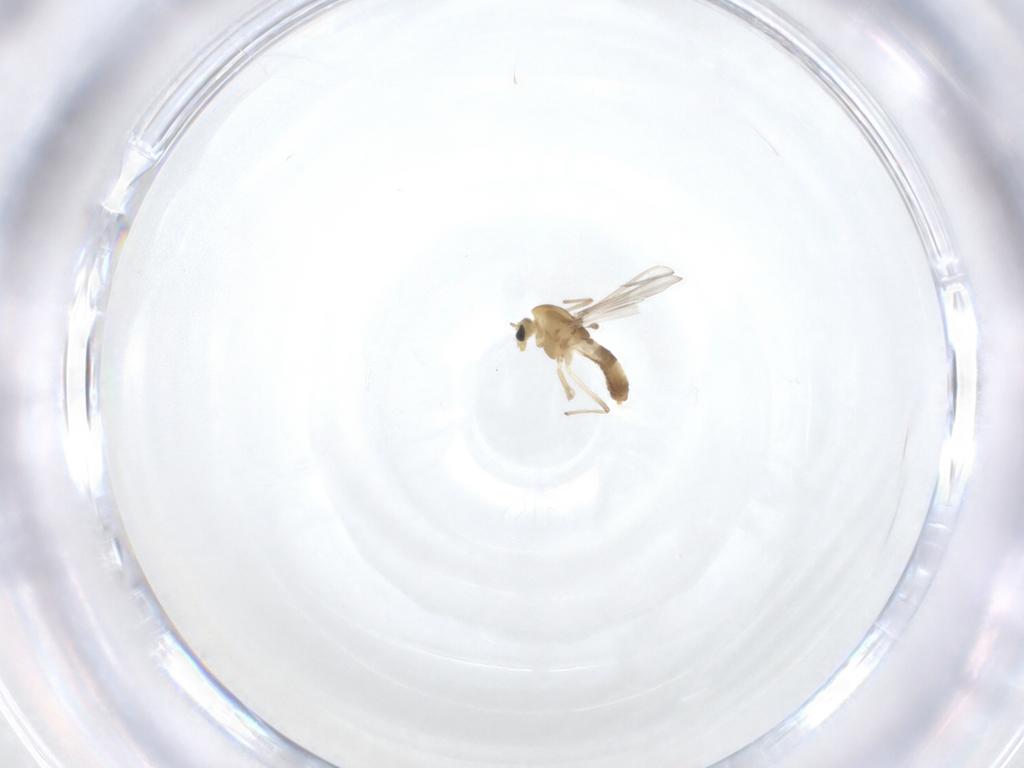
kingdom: Animalia
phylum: Arthropoda
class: Insecta
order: Diptera
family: Chironomidae
